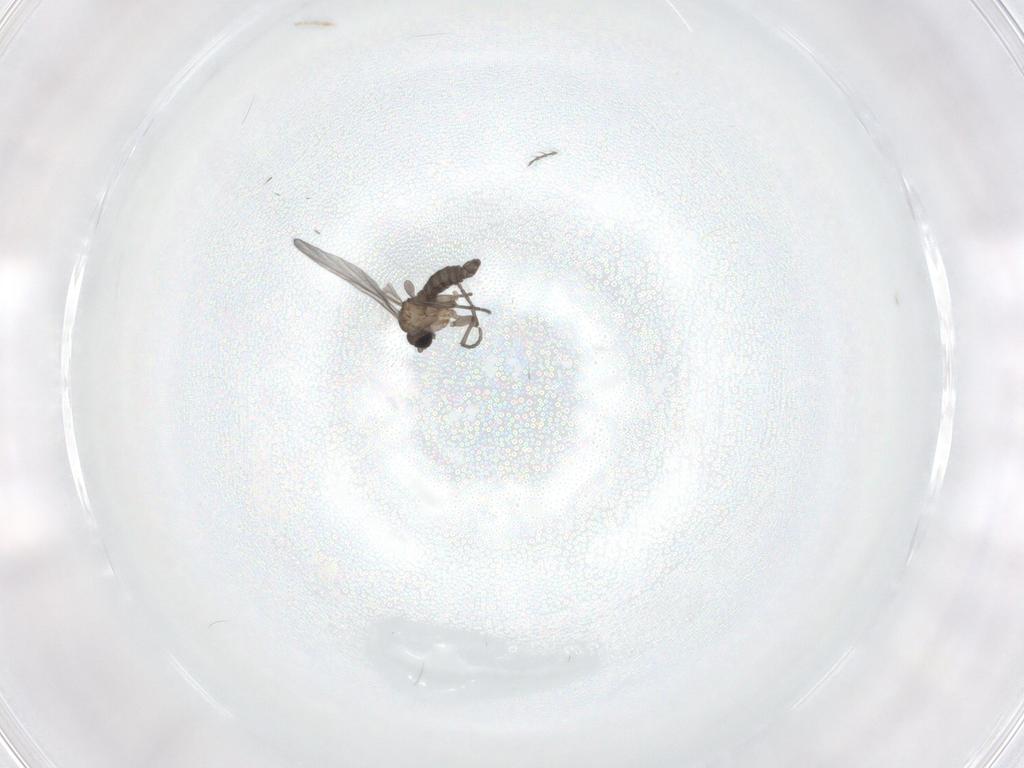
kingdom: Animalia
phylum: Arthropoda
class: Insecta
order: Diptera
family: Sciaridae
